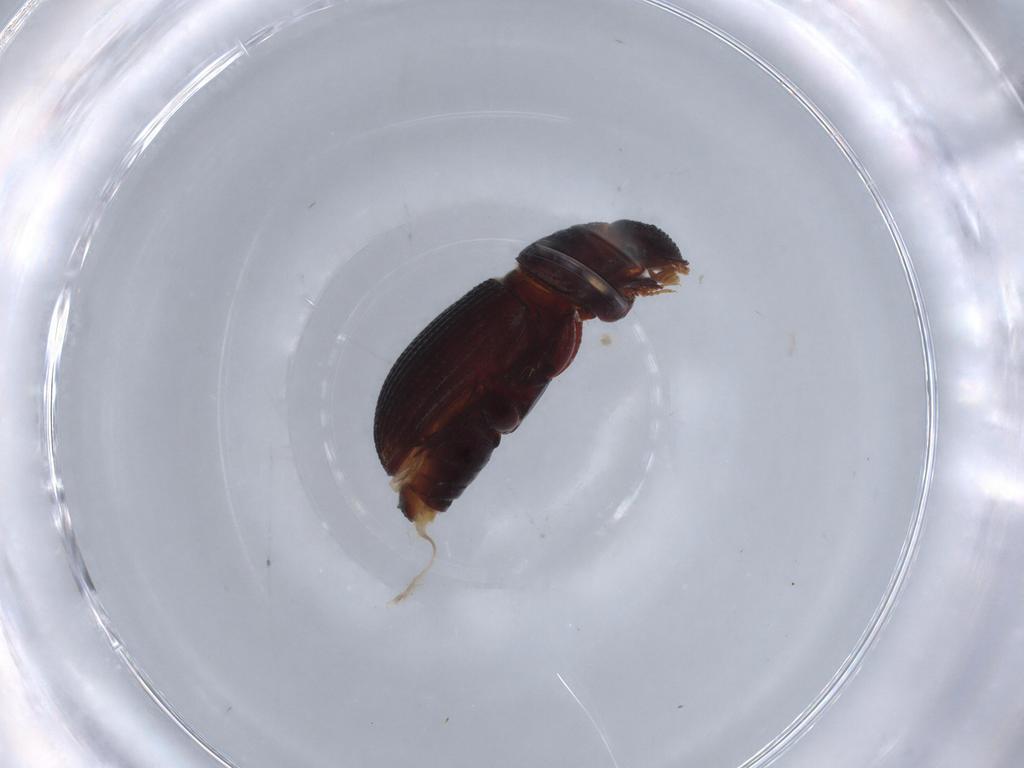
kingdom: Animalia
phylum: Arthropoda
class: Insecta
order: Coleoptera
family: Scarabaeidae
